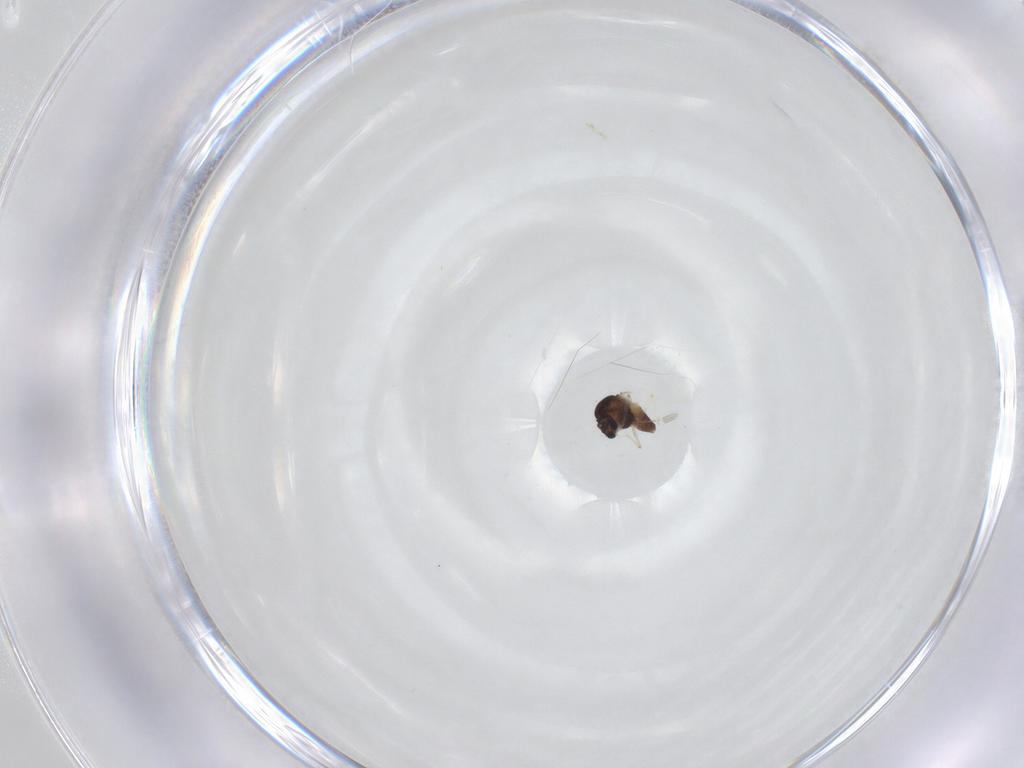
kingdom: Animalia
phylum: Arthropoda
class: Insecta
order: Diptera
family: Chironomidae
